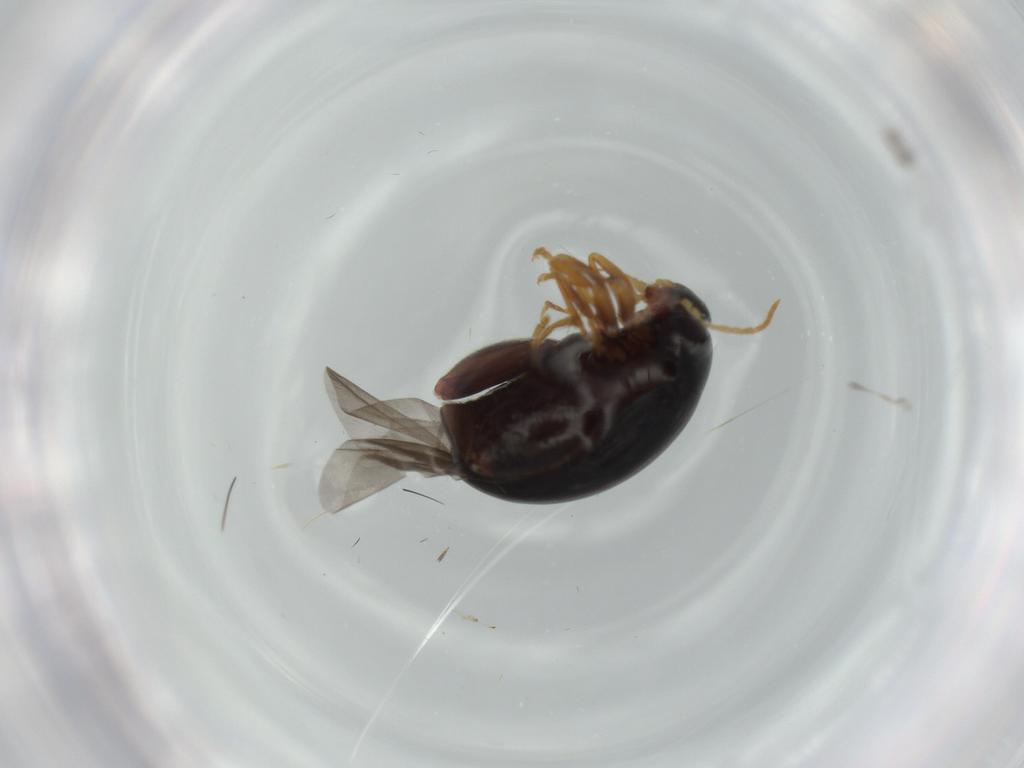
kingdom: Animalia
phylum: Arthropoda
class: Insecta
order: Coleoptera
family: Chrysomelidae
